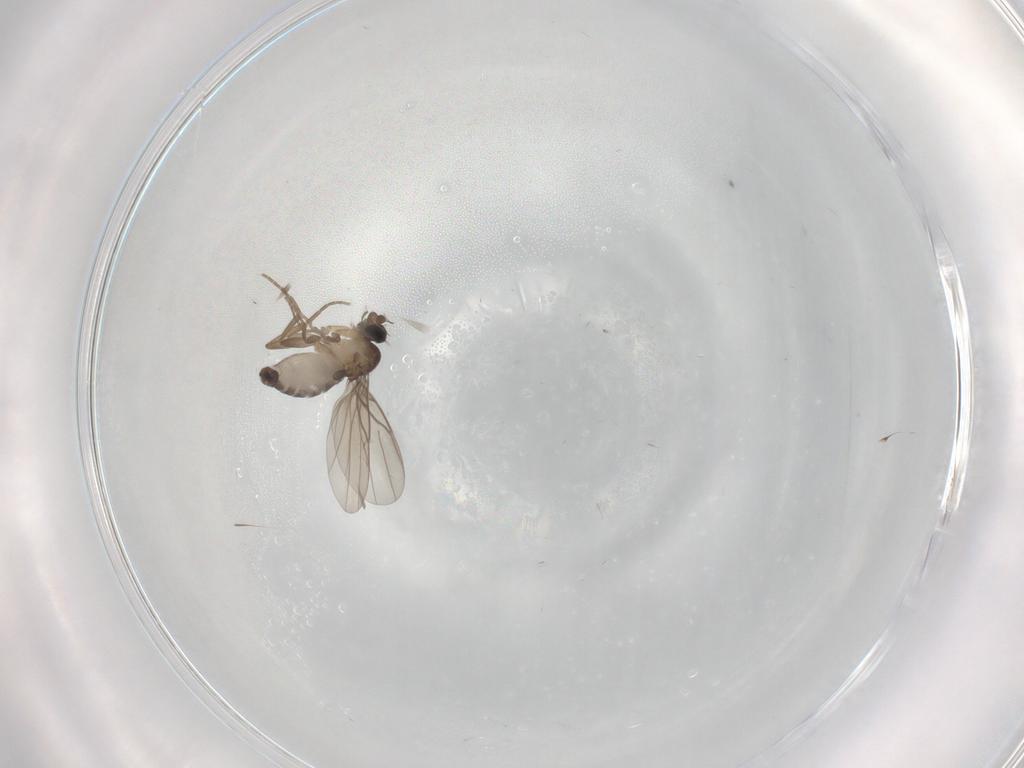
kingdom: Animalia
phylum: Arthropoda
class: Insecta
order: Diptera
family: Phoridae
